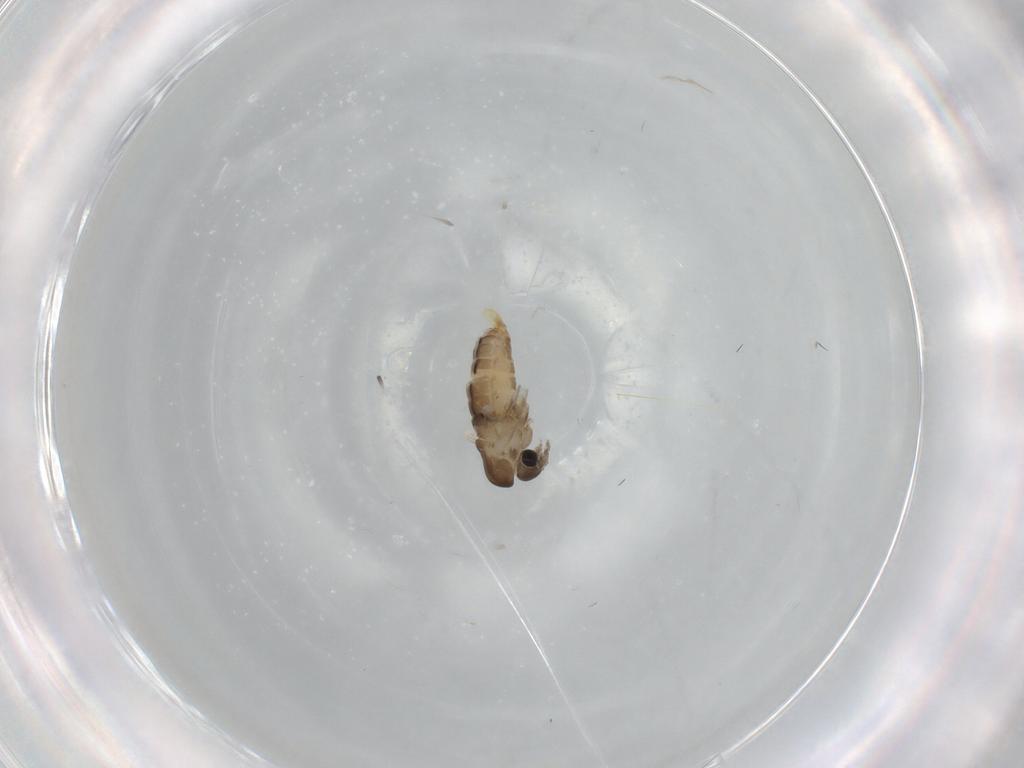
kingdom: Animalia
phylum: Arthropoda
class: Insecta
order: Diptera
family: Psychodidae
